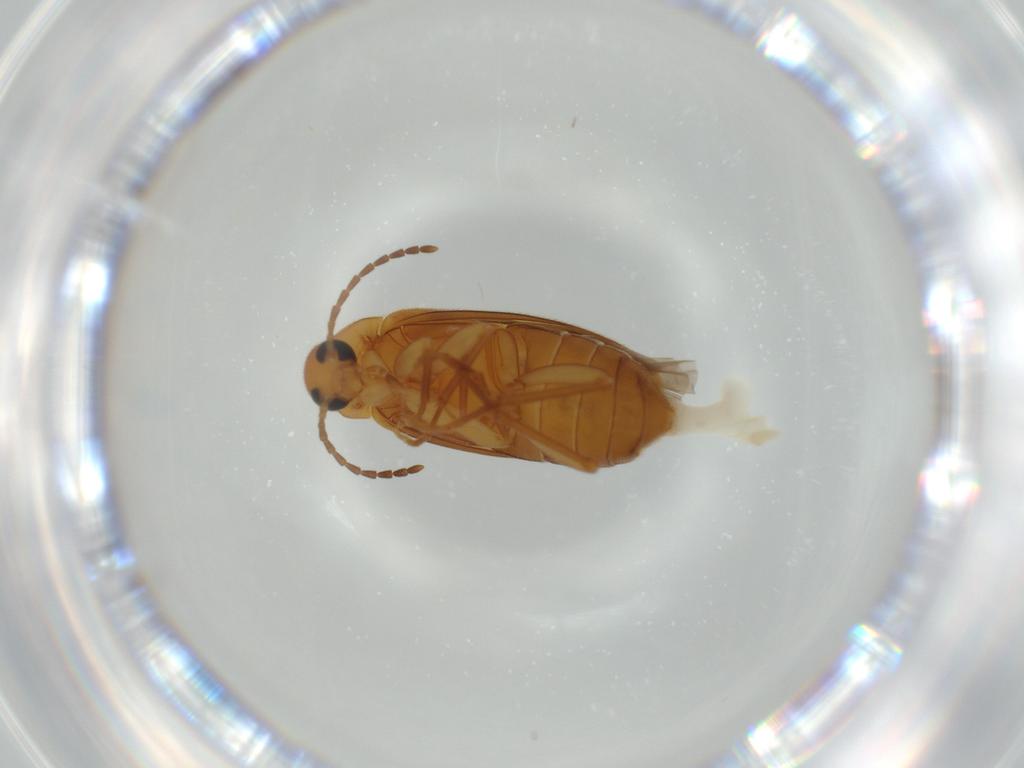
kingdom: Animalia
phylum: Arthropoda
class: Insecta
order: Coleoptera
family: Scraptiidae
